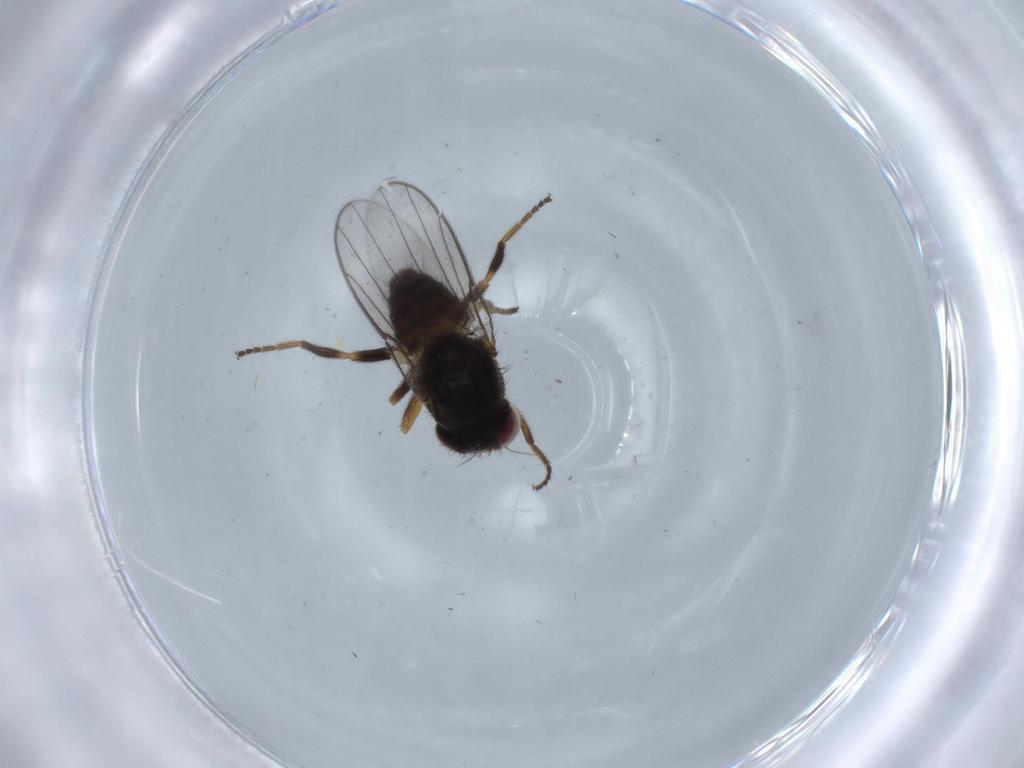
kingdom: Animalia
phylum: Arthropoda
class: Insecta
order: Diptera
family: Chloropidae
